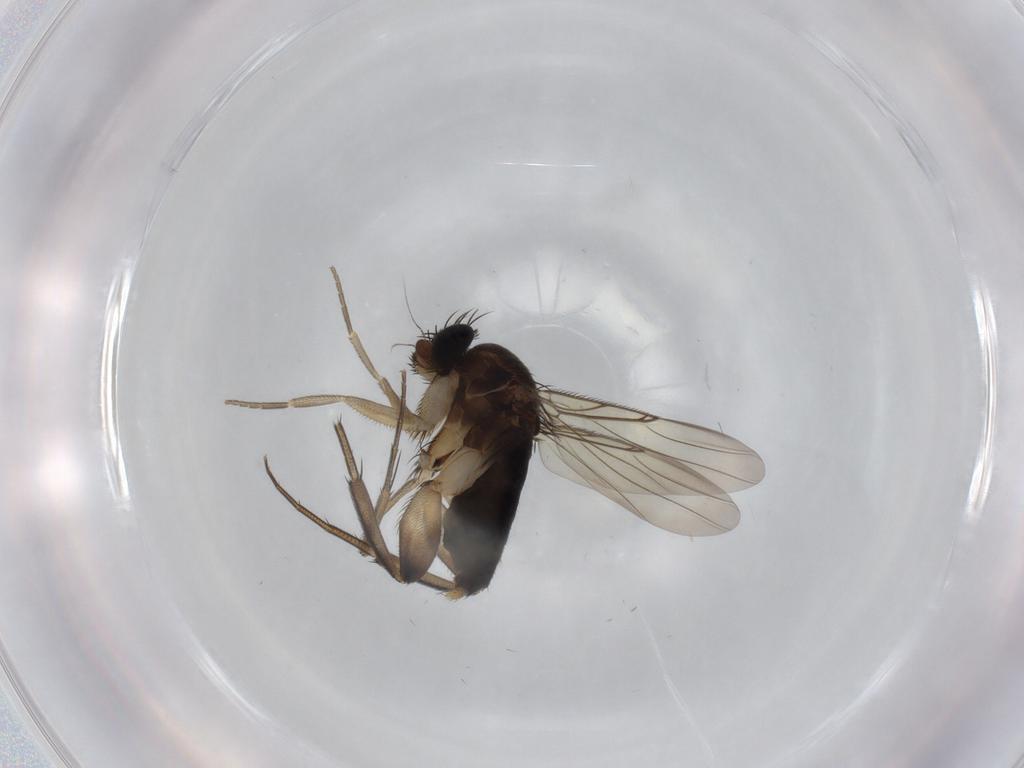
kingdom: Animalia
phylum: Arthropoda
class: Insecta
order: Diptera
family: Phoridae
